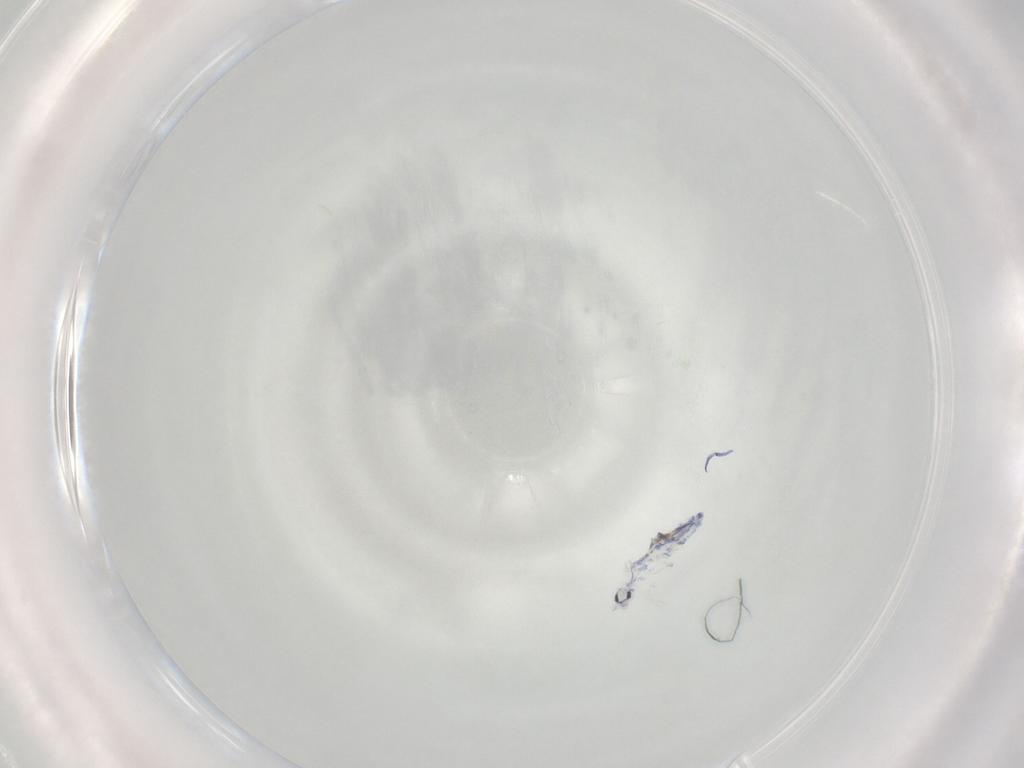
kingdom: Animalia
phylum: Arthropoda
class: Collembola
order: Entomobryomorpha
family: Entomobryidae
